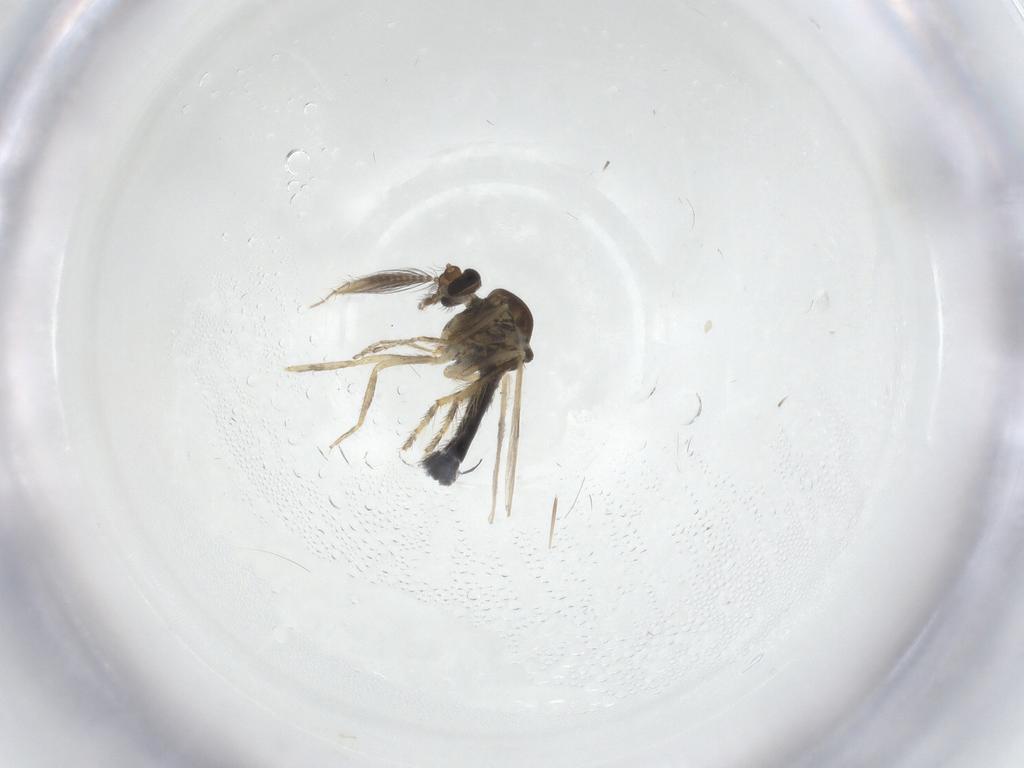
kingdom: Animalia
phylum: Arthropoda
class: Insecta
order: Diptera
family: Ceratopogonidae
